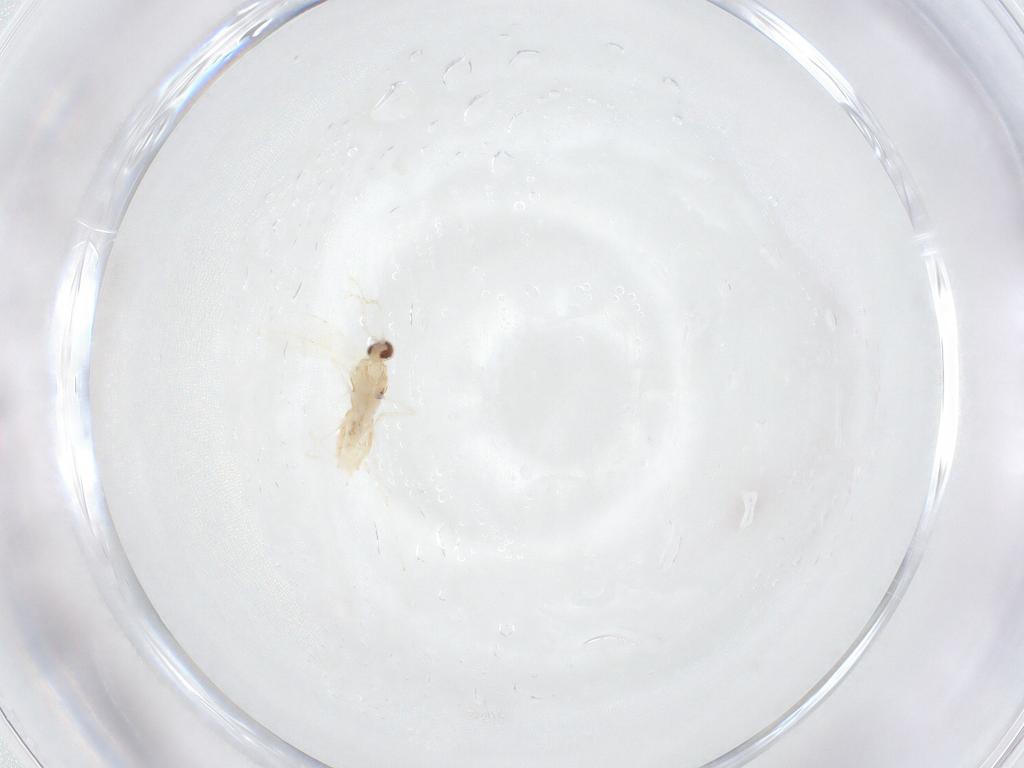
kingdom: Animalia
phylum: Arthropoda
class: Insecta
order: Diptera
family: Cecidomyiidae
